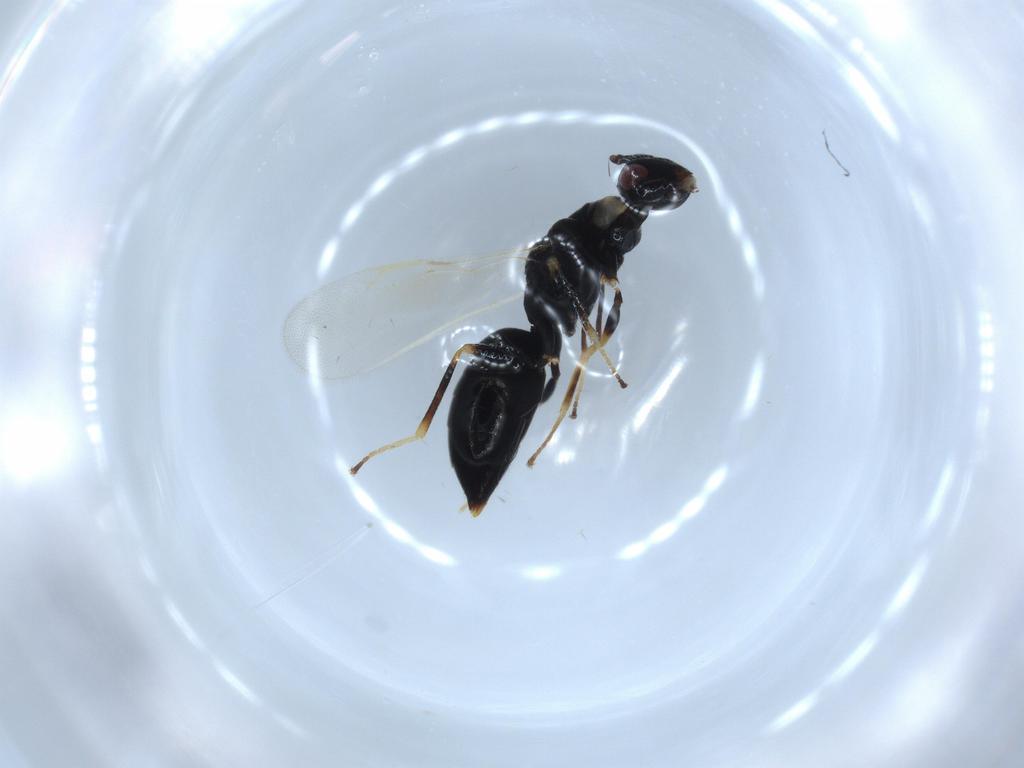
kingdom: Animalia
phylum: Arthropoda
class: Insecta
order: Hymenoptera
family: Eurytomidae
